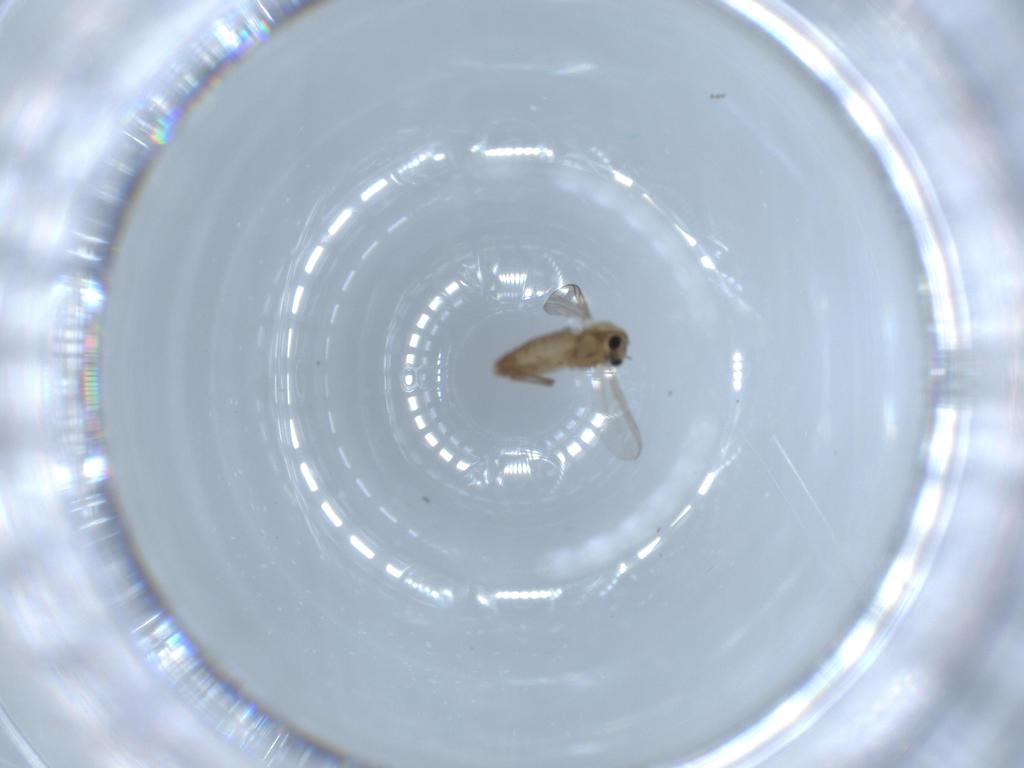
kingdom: Animalia
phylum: Arthropoda
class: Insecta
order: Diptera
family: Chironomidae
